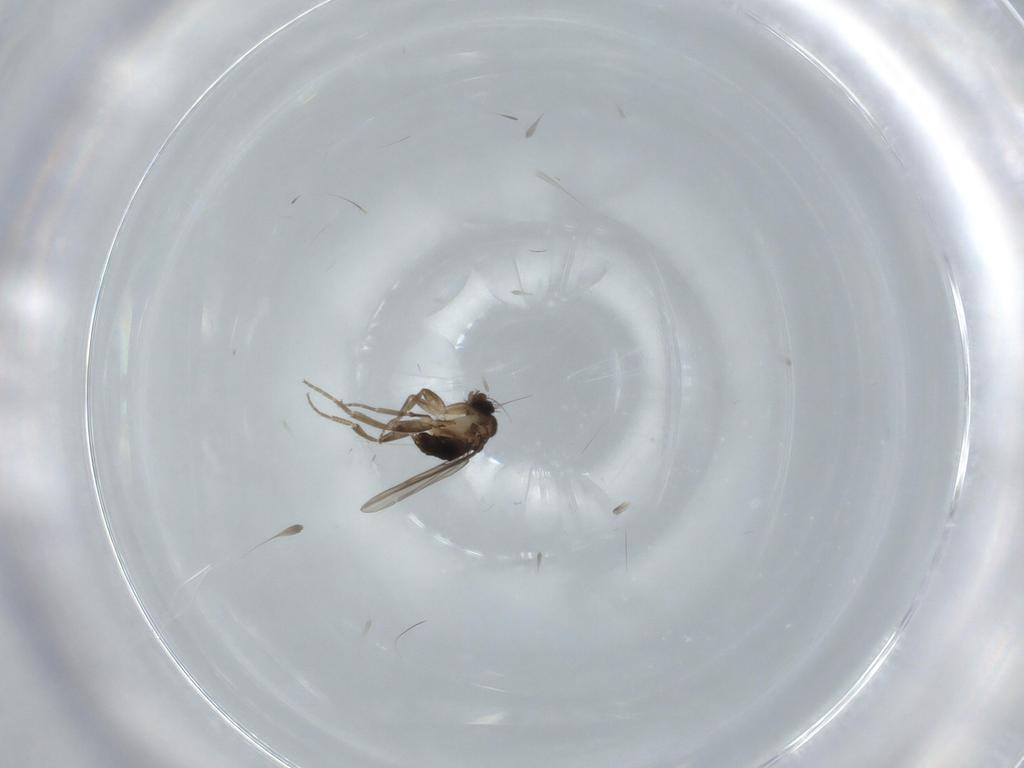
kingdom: Animalia
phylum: Arthropoda
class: Insecta
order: Diptera
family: Phoridae
